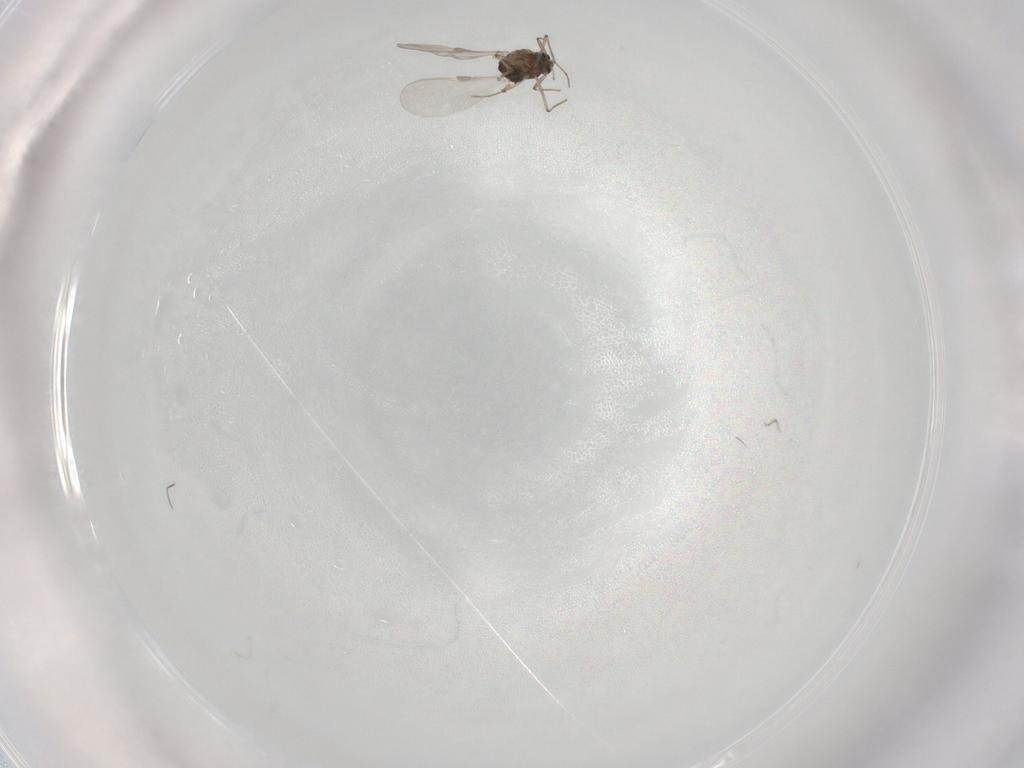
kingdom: Animalia
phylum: Arthropoda
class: Insecta
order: Diptera
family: Chironomidae
